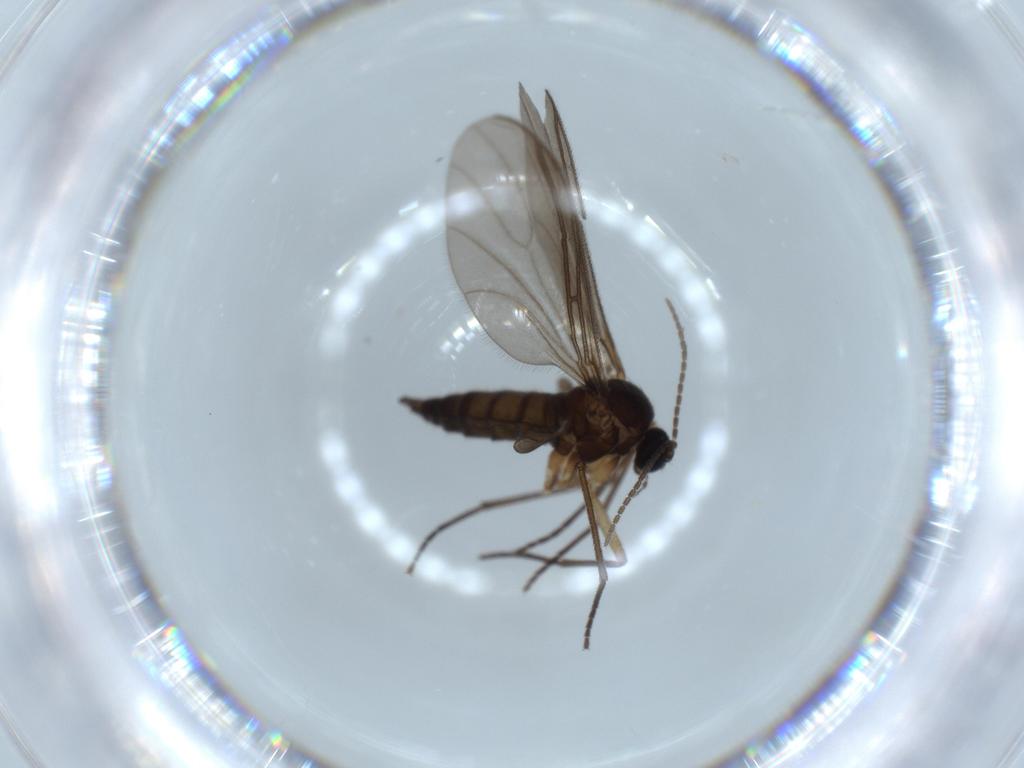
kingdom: Animalia
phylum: Arthropoda
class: Insecta
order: Diptera
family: Sciaridae
